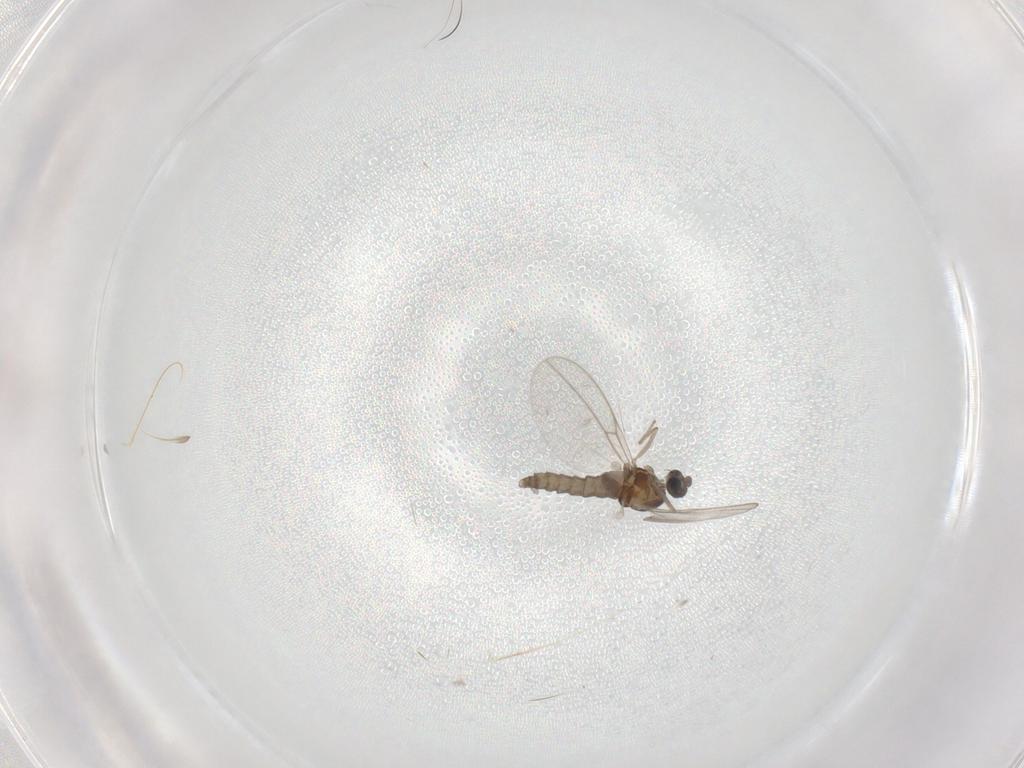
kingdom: Animalia
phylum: Arthropoda
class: Insecta
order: Diptera
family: Cecidomyiidae
